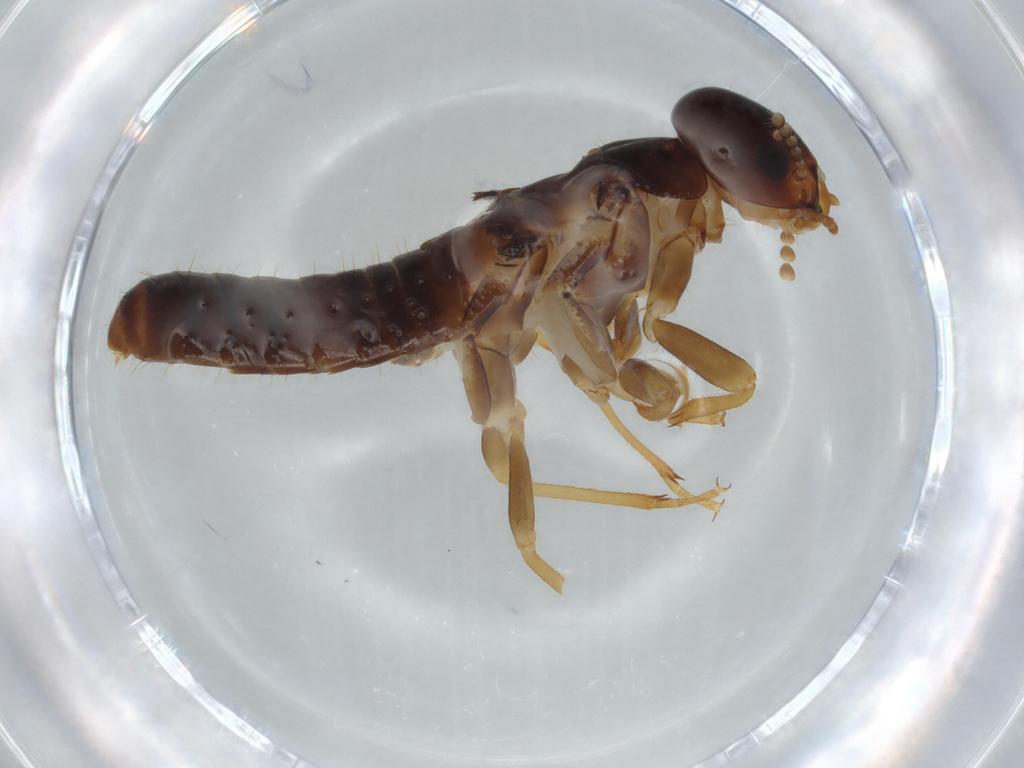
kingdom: Animalia
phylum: Arthropoda
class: Insecta
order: Blattodea
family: Kalotermitidae
